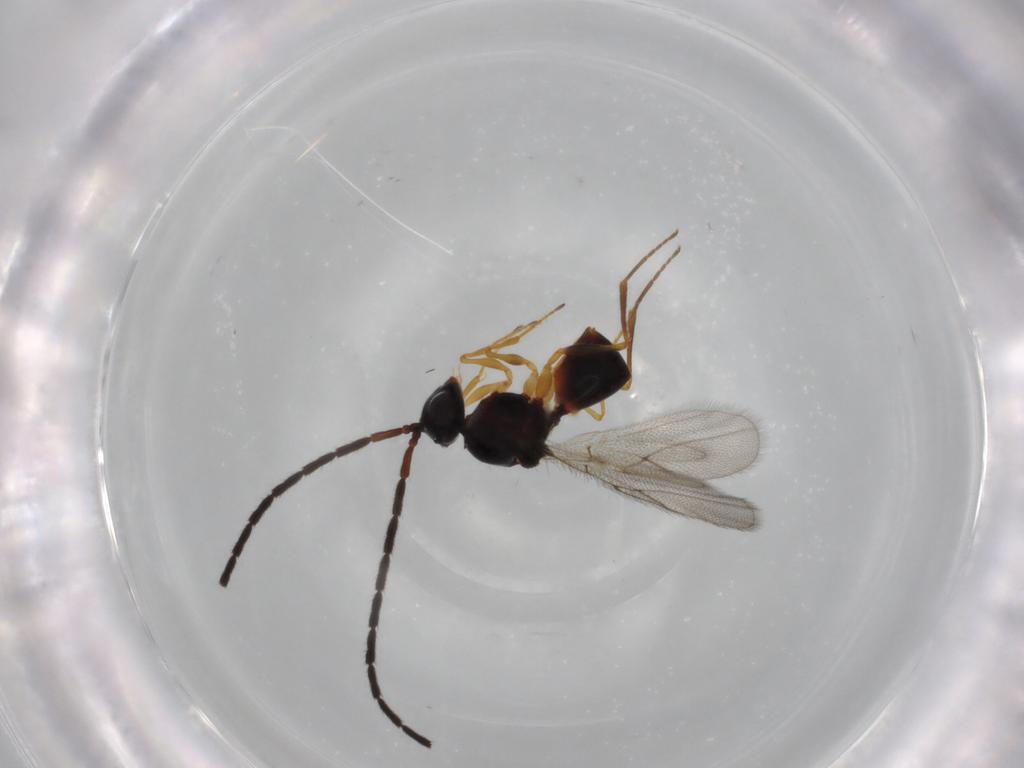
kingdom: Animalia
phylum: Arthropoda
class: Insecta
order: Hymenoptera
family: Figitidae
